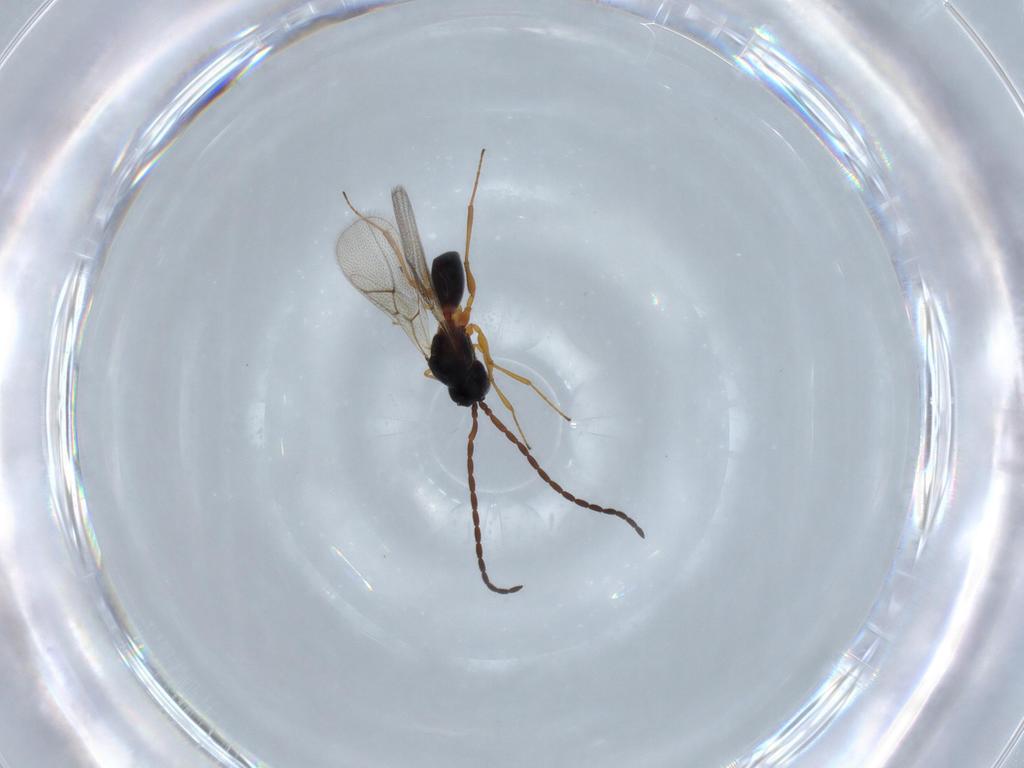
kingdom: Animalia
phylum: Arthropoda
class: Insecta
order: Hymenoptera
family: Figitidae
